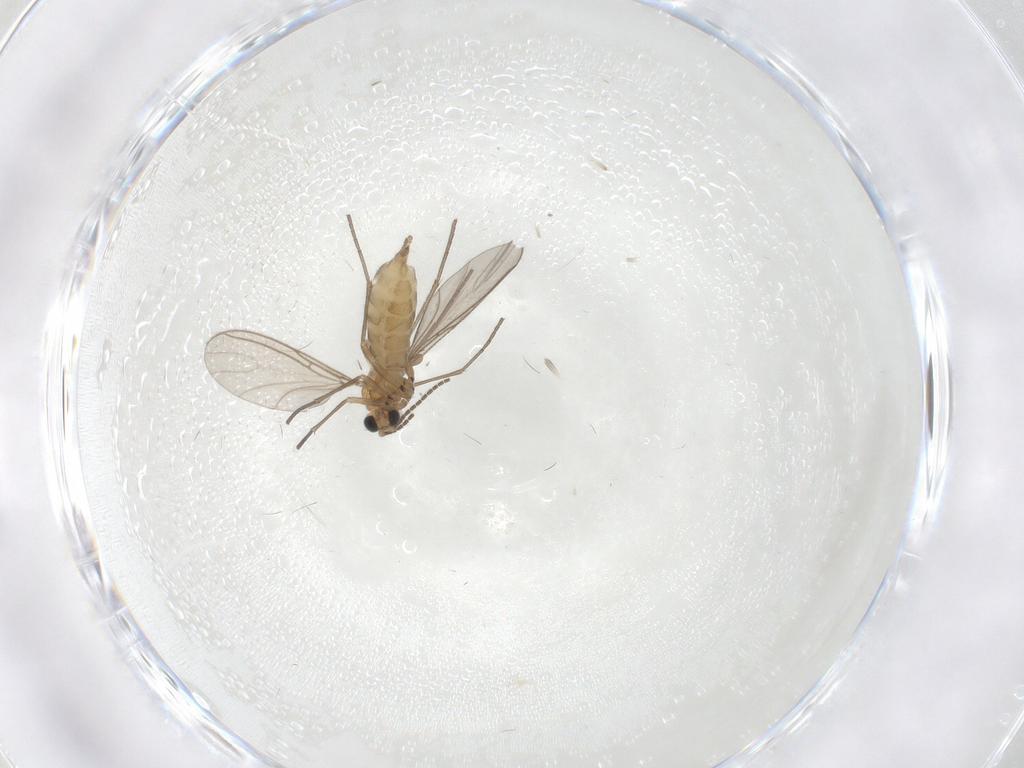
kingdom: Animalia
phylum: Arthropoda
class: Insecta
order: Diptera
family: Sciaridae
